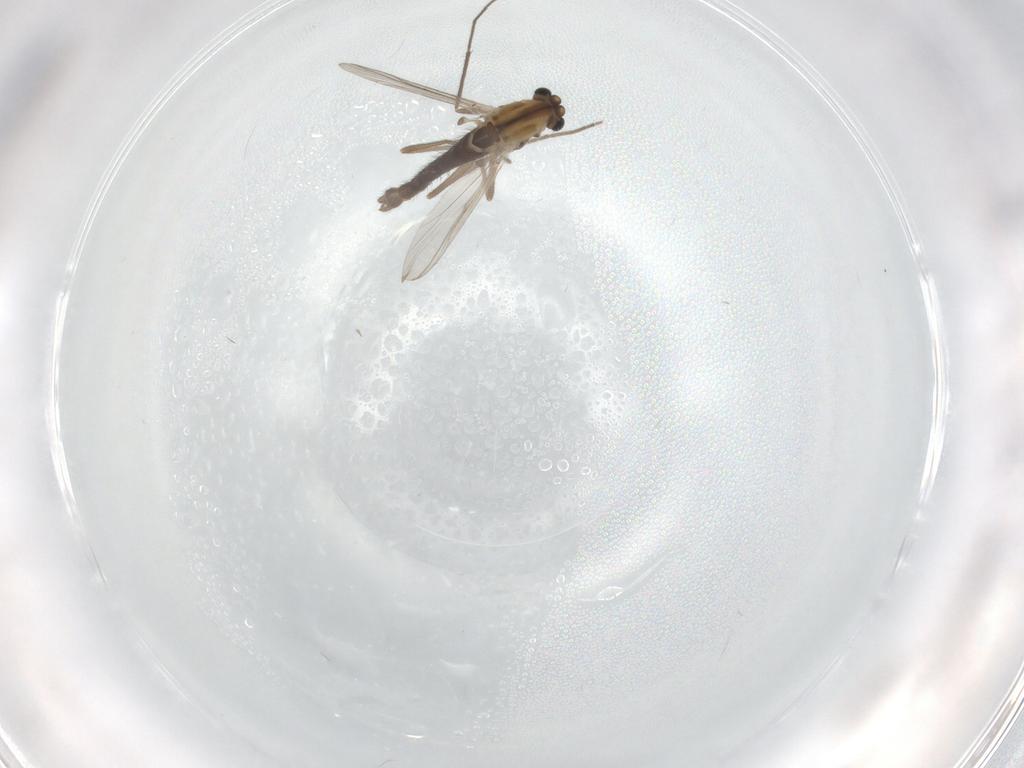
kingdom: Animalia
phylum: Arthropoda
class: Insecta
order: Diptera
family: Chironomidae
